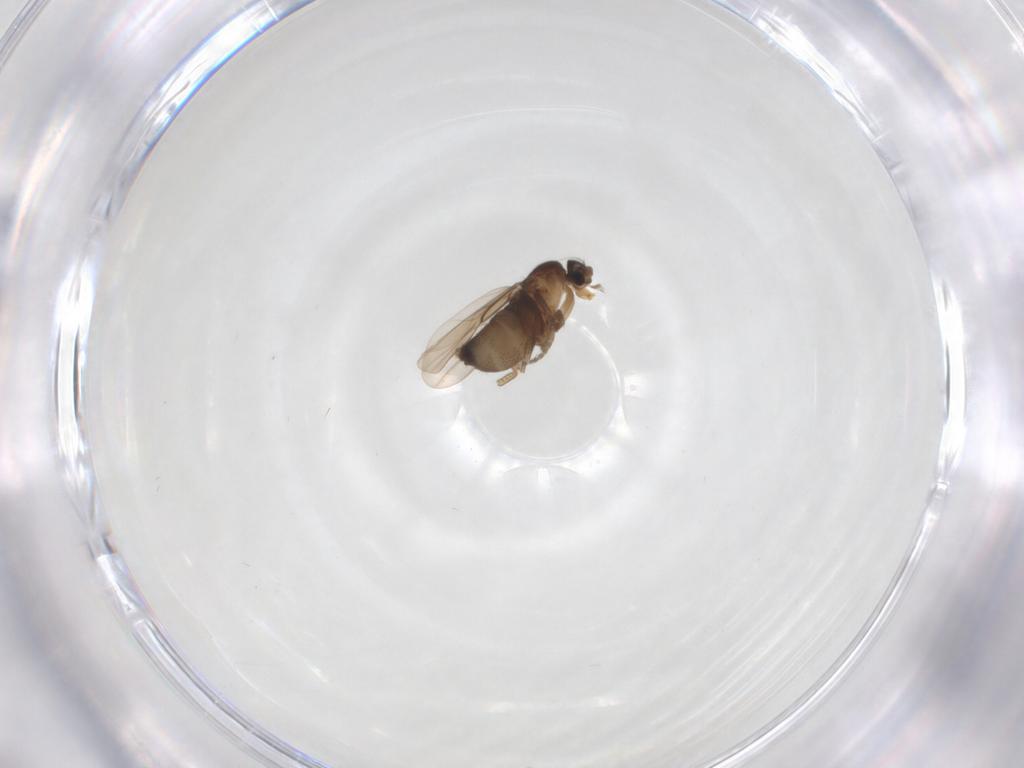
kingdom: Animalia
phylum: Arthropoda
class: Insecta
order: Diptera
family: Phoridae
